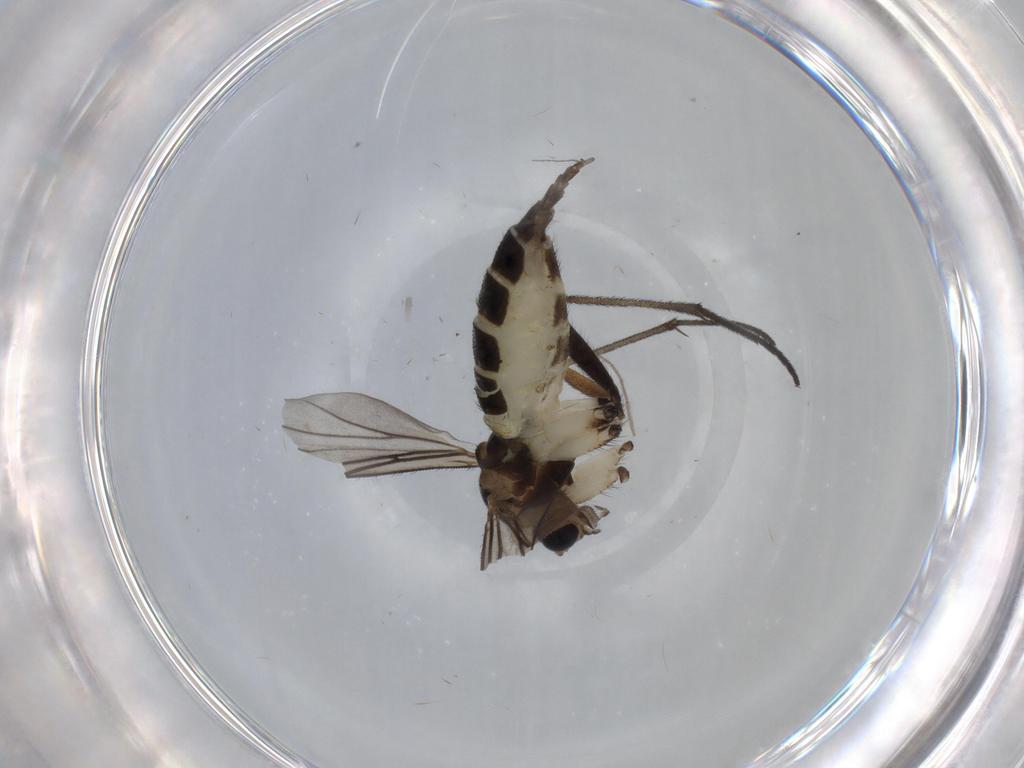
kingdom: Animalia
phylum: Arthropoda
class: Insecta
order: Diptera
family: Sciaridae
